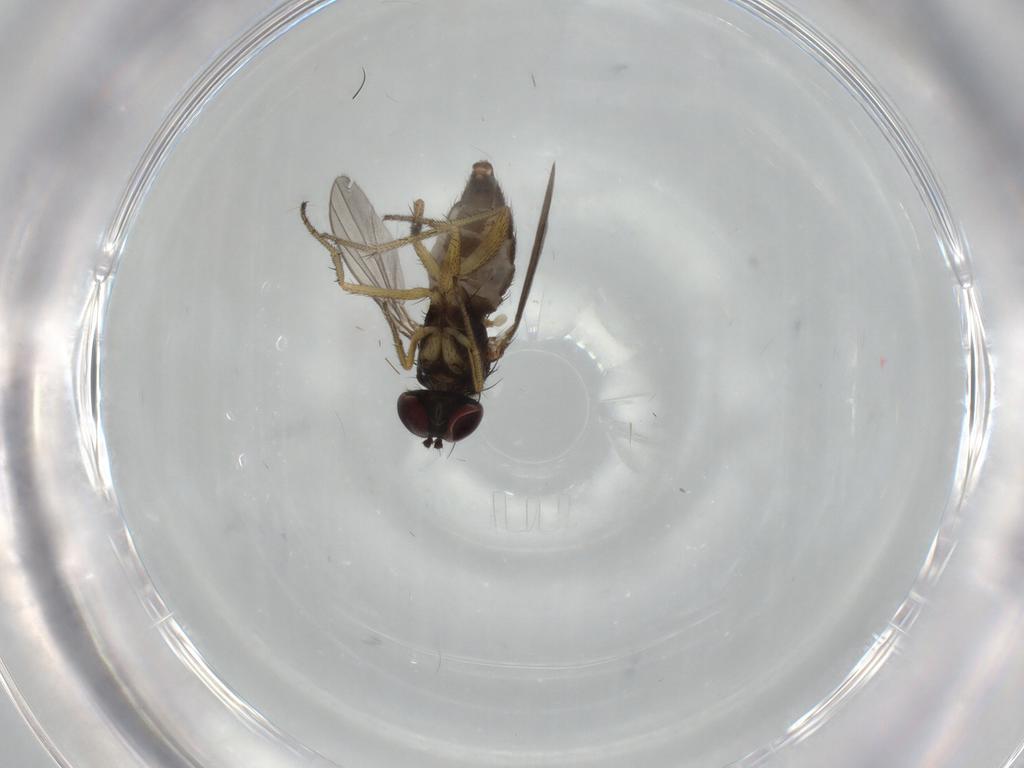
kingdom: Animalia
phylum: Arthropoda
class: Insecta
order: Diptera
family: Dolichopodidae
